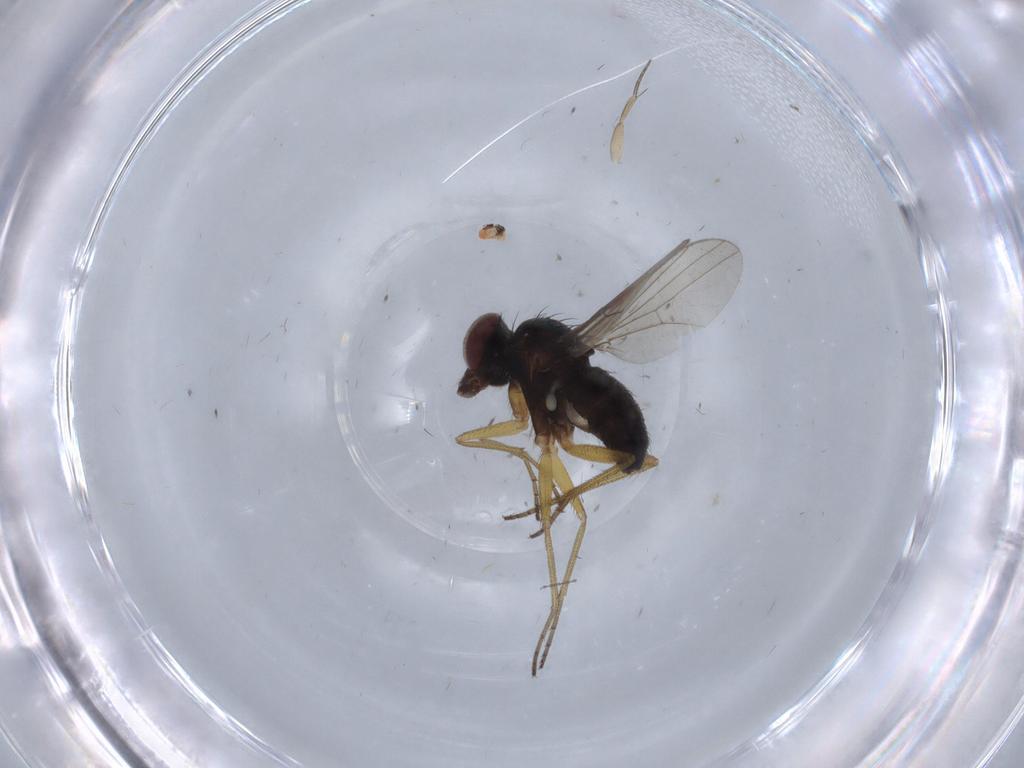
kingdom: Animalia
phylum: Arthropoda
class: Insecta
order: Diptera
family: Dolichopodidae
